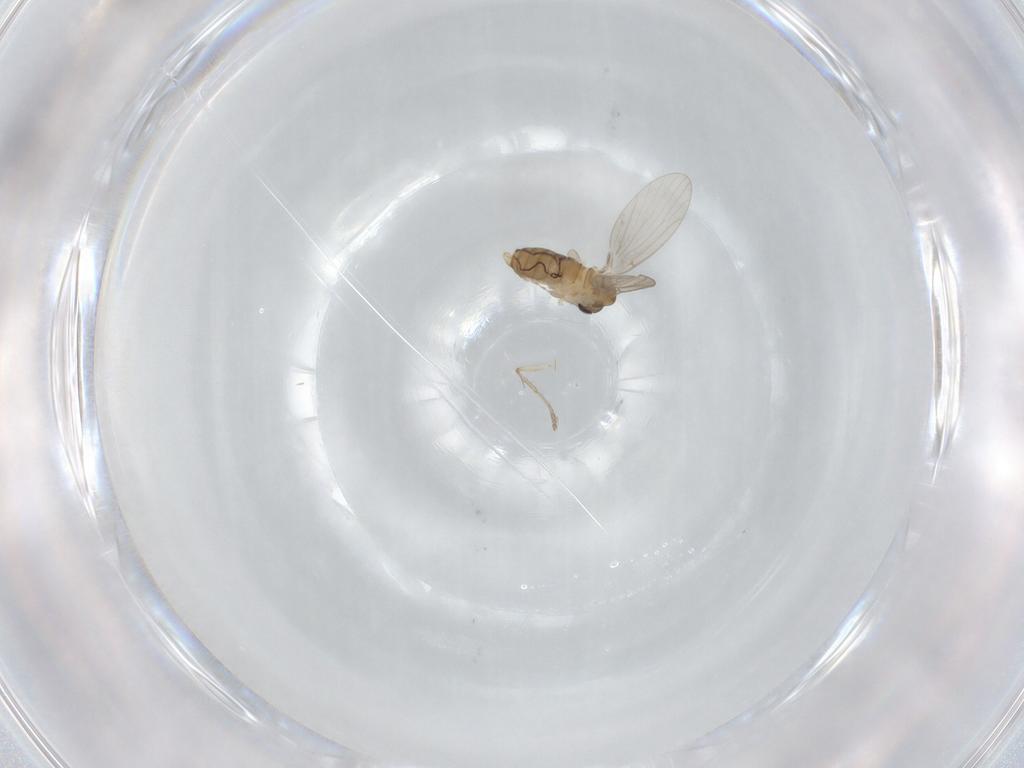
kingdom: Animalia
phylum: Arthropoda
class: Insecta
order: Diptera
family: Psychodidae
